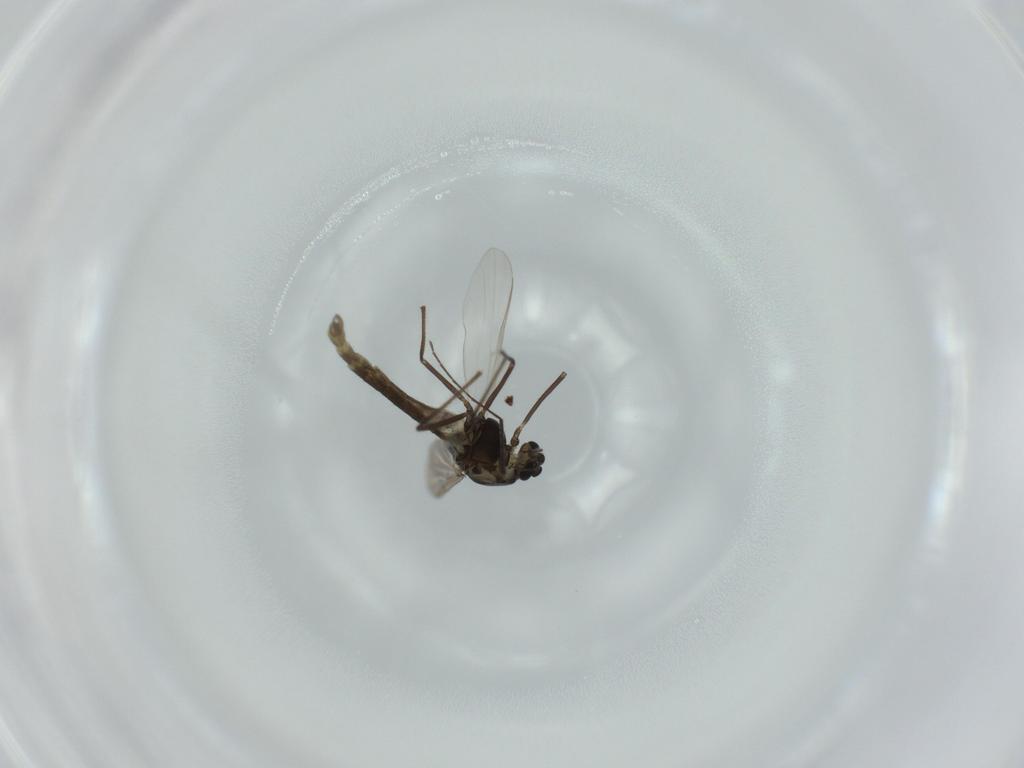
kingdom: Animalia
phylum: Arthropoda
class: Insecta
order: Diptera
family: Chironomidae
